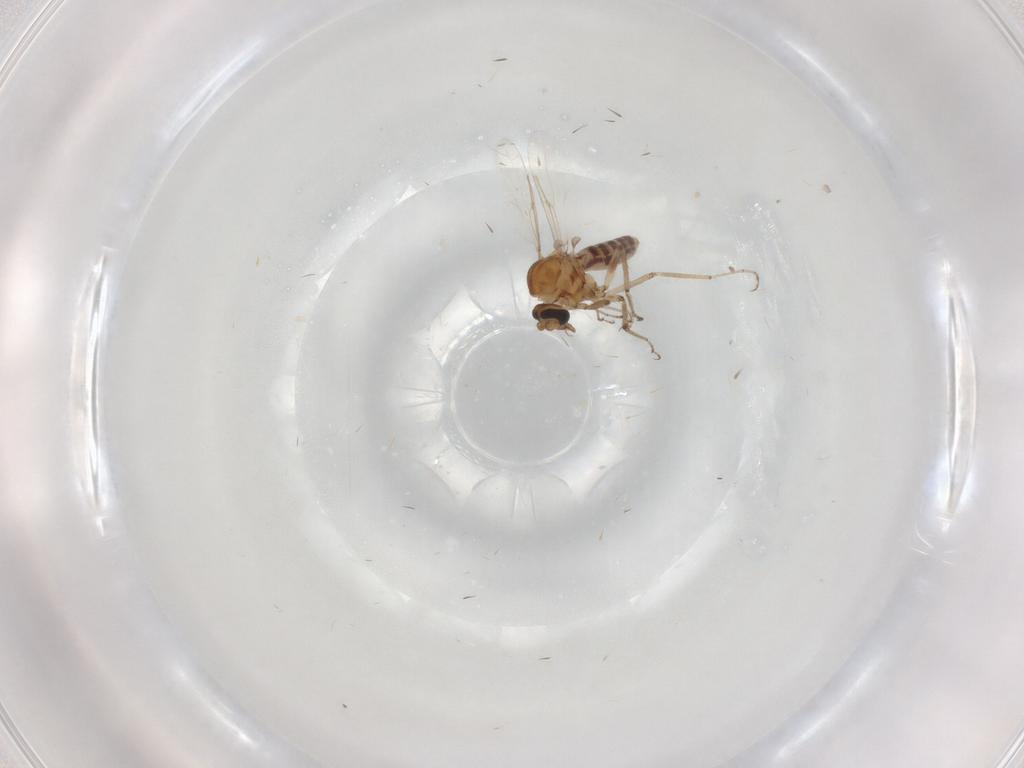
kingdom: Animalia
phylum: Arthropoda
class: Insecta
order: Diptera
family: Ceratopogonidae
